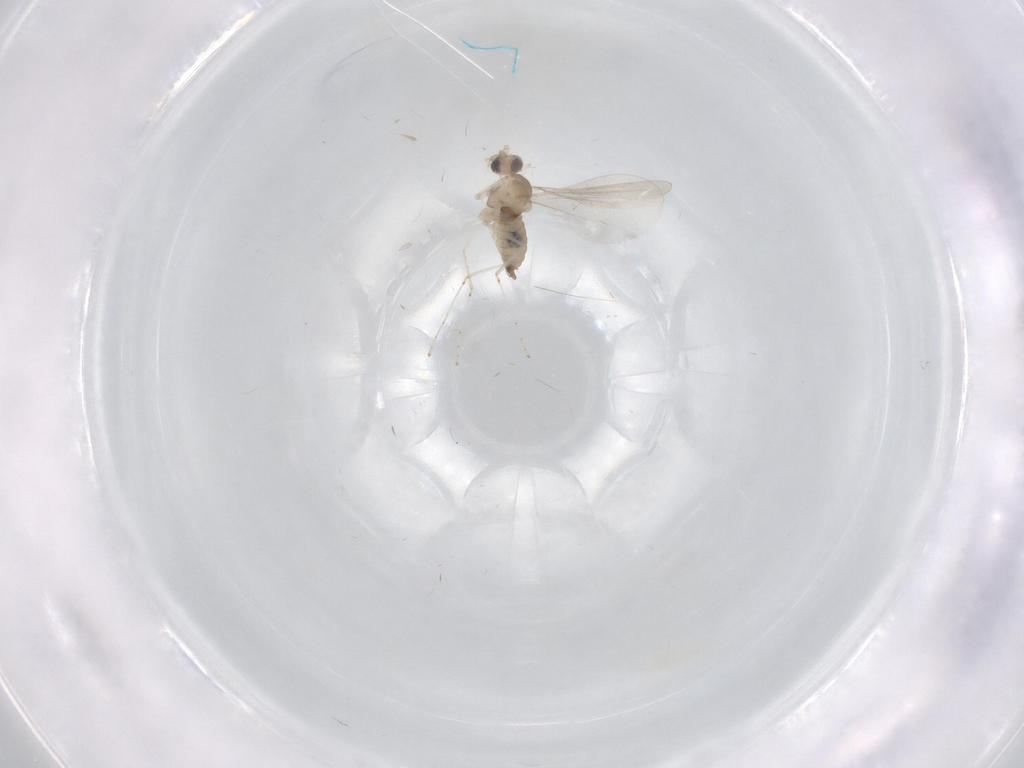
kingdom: Animalia
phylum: Arthropoda
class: Insecta
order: Diptera
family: Cecidomyiidae
